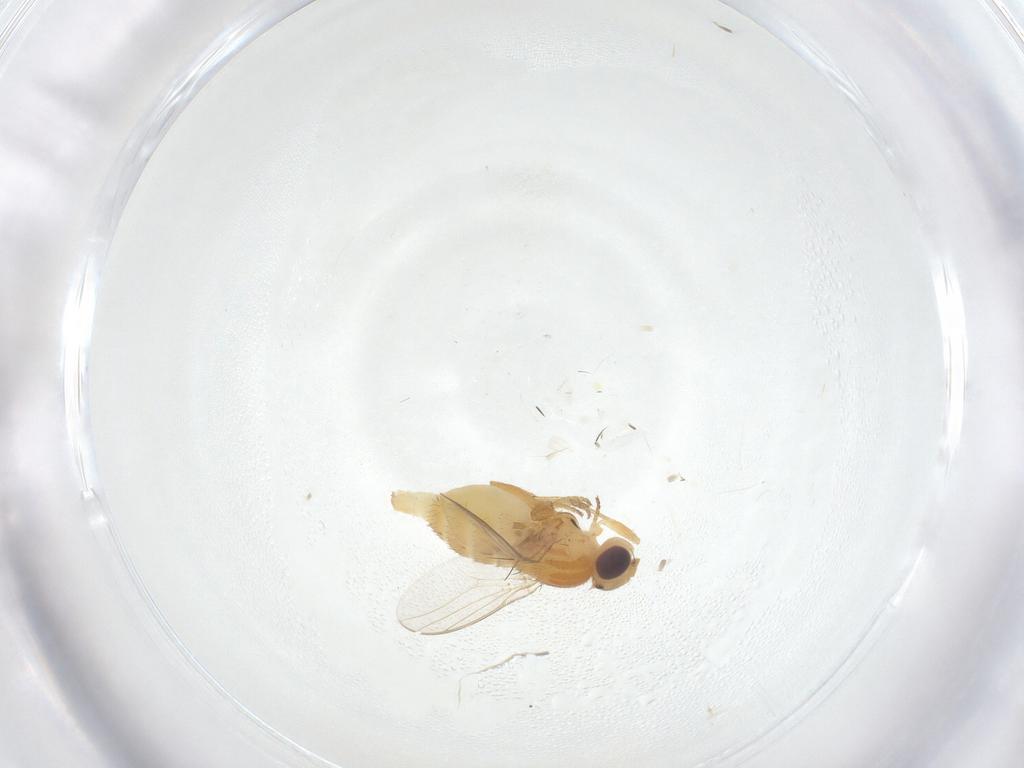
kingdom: Animalia
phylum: Arthropoda
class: Insecta
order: Diptera
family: Chloropidae
